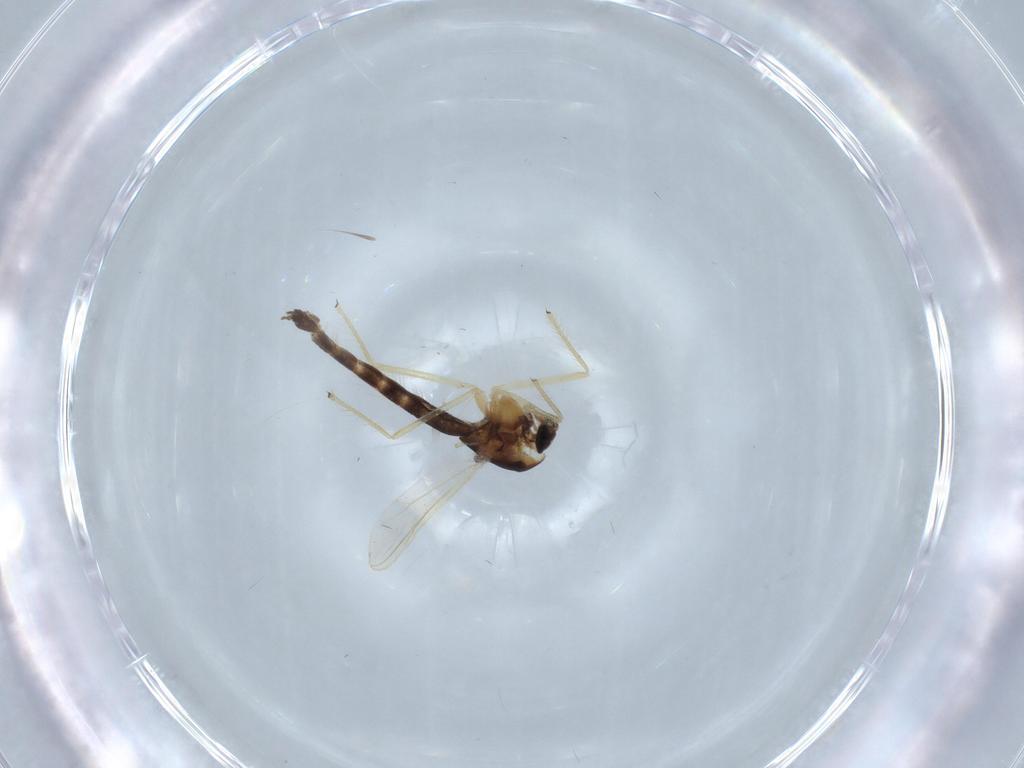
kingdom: Animalia
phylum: Arthropoda
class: Insecta
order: Diptera
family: Chironomidae
